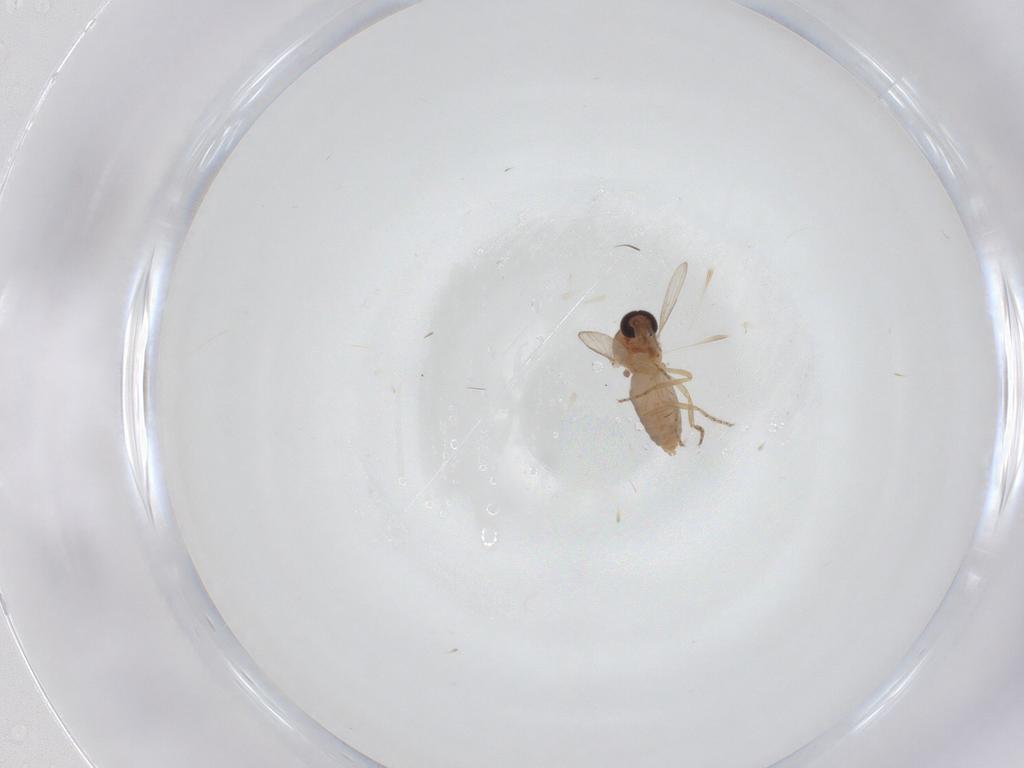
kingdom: Animalia
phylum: Arthropoda
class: Insecta
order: Diptera
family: Ceratopogonidae
